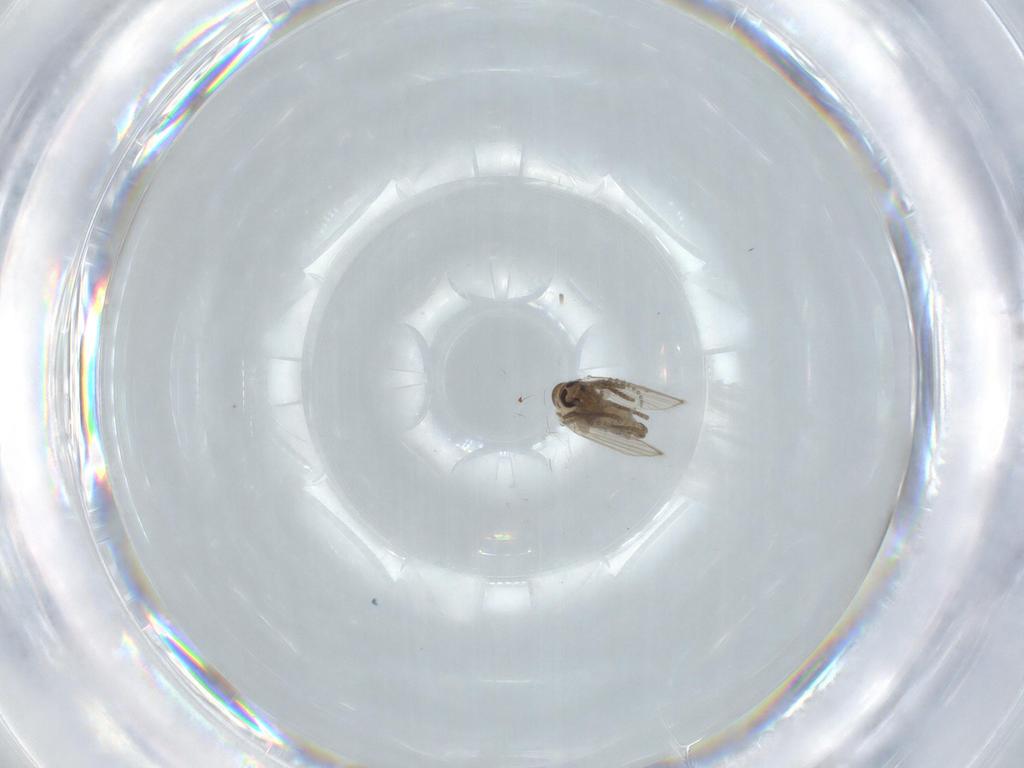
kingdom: Animalia
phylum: Arthropoda
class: Insecta
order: Diptera
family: Psychodidae
